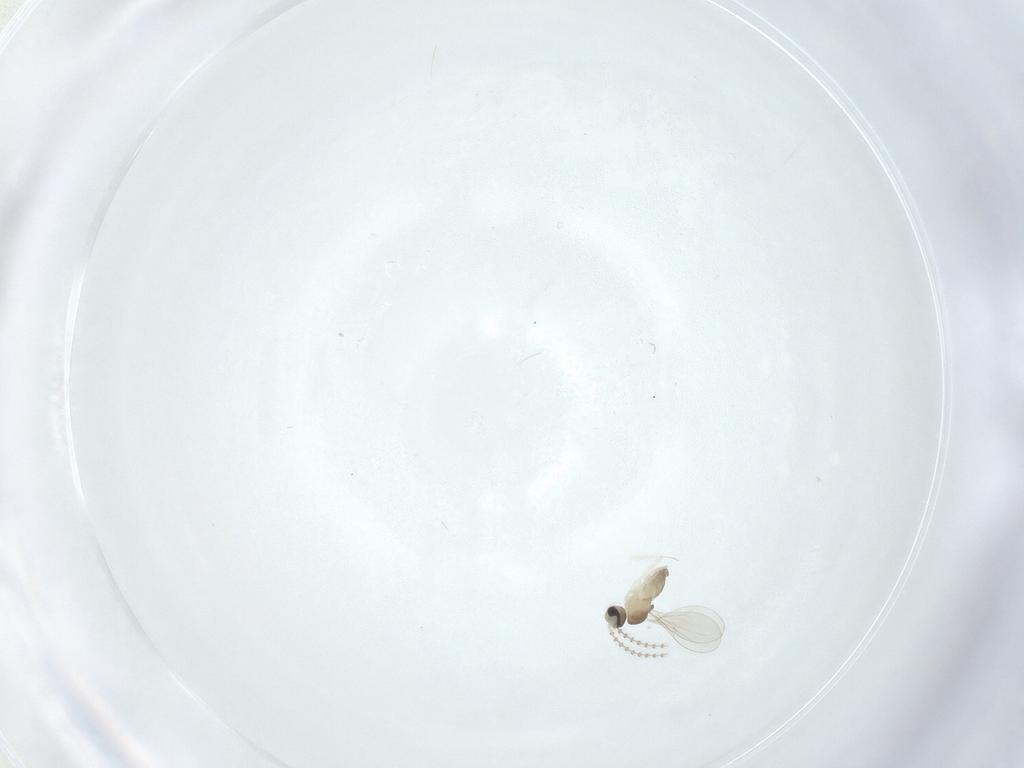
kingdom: Animalia
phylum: Arthropoda
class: Insecta
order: Diptera
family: Cecidomyiidae
